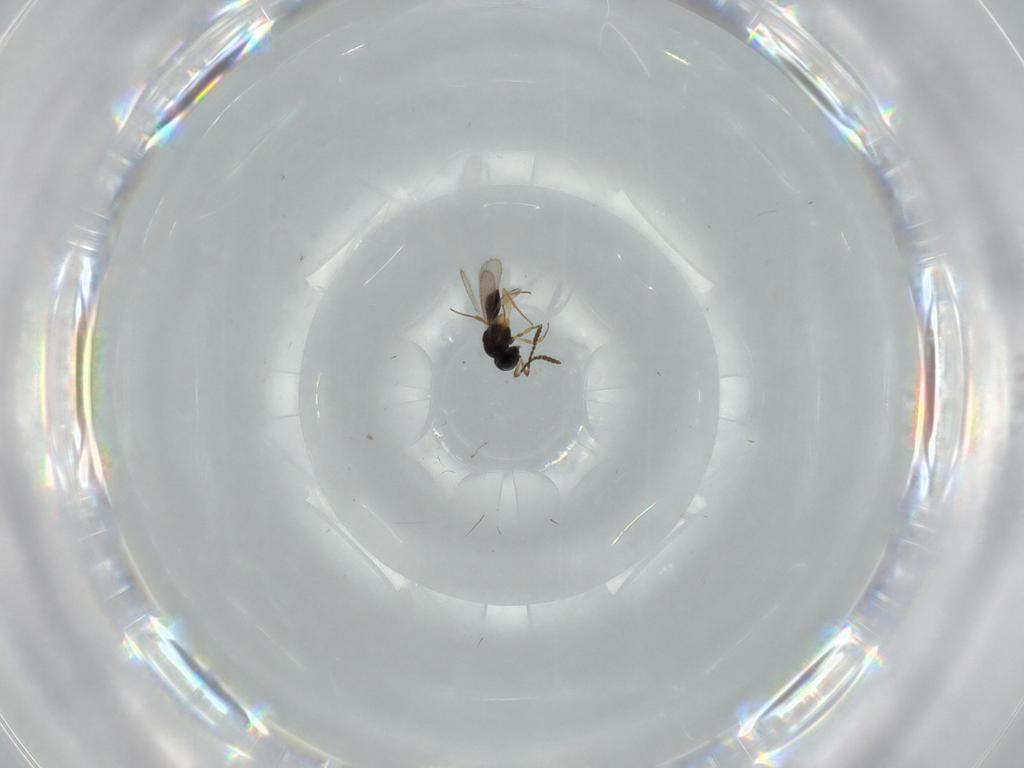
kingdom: Animalia
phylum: Arthropoda
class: Insecta
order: Hymenoptera
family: Scelionidae
